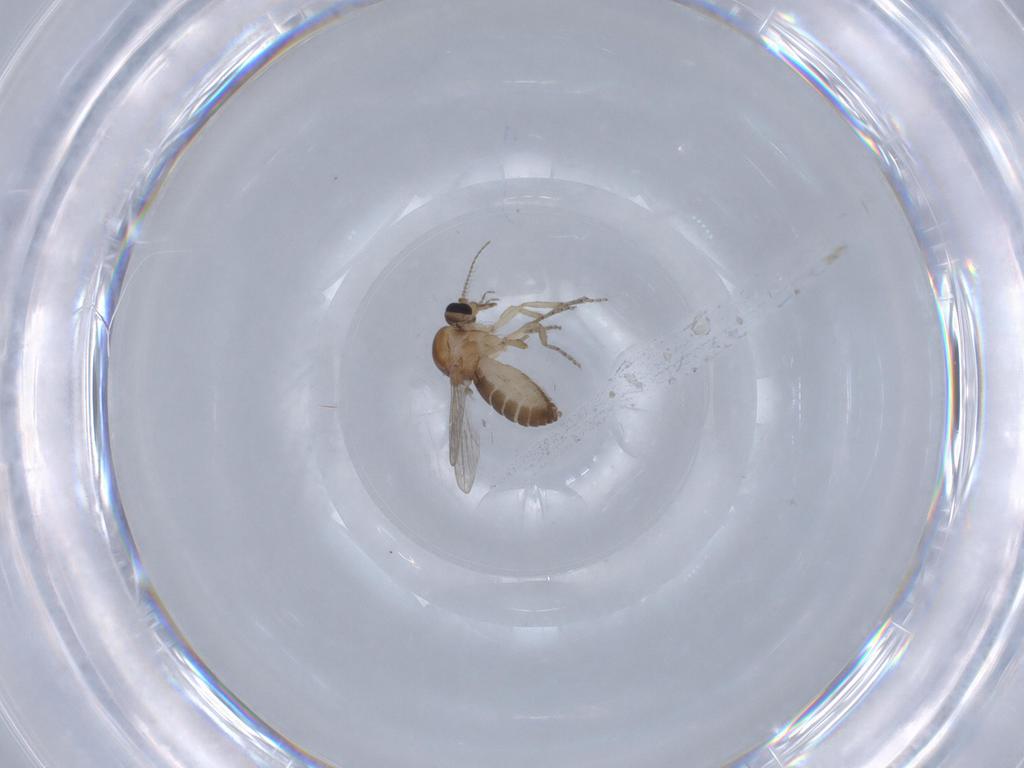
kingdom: Animalia
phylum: Arthropoda
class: Insecta
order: Diptera
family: Ceratopogonidae
